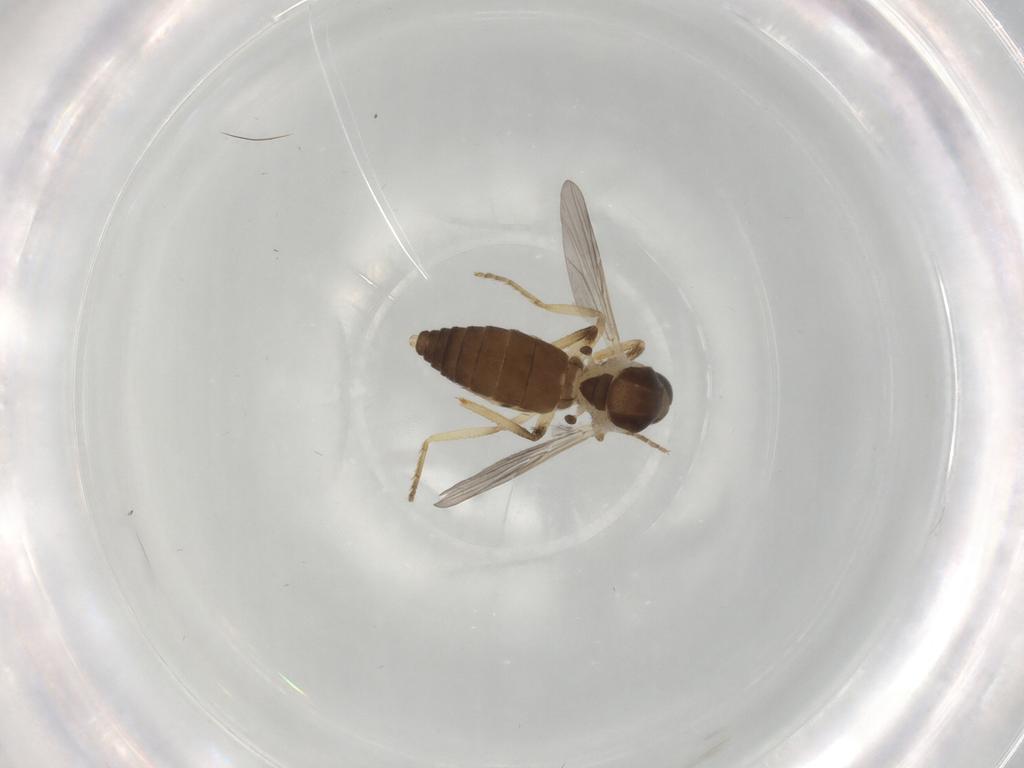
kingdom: Animalia
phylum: Arthropoda
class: Insecta
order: Diptera
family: Ceratopogonidae
